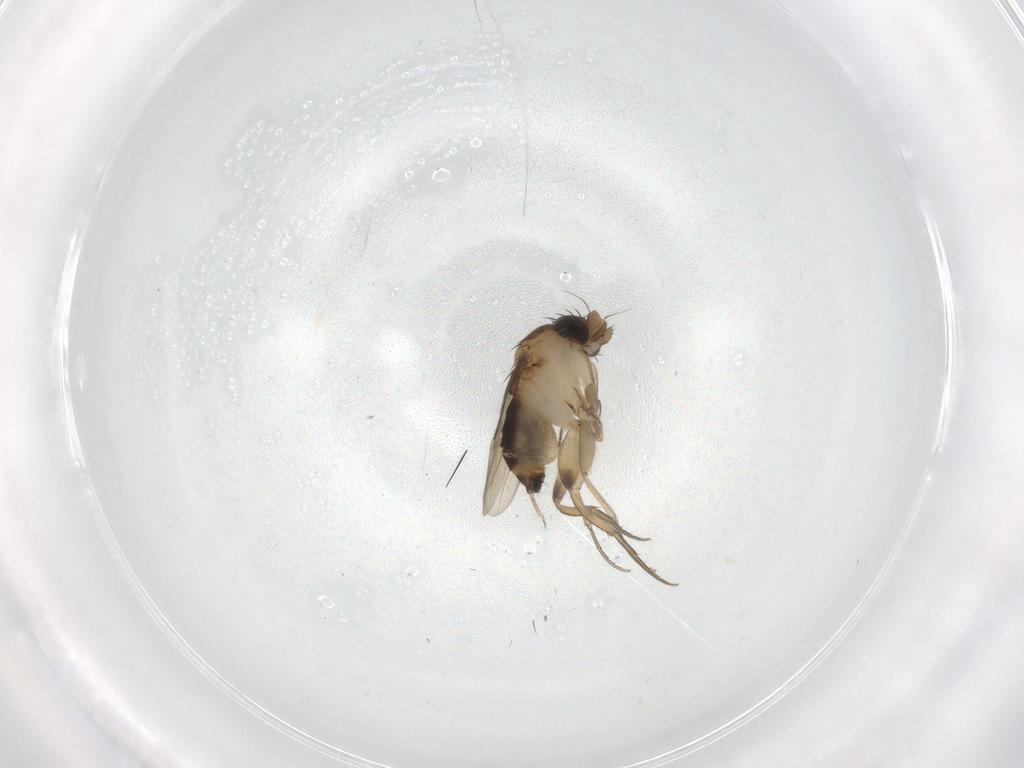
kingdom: Animalia
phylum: Arthropoda
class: Insecta
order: Diptera
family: Phoridae
